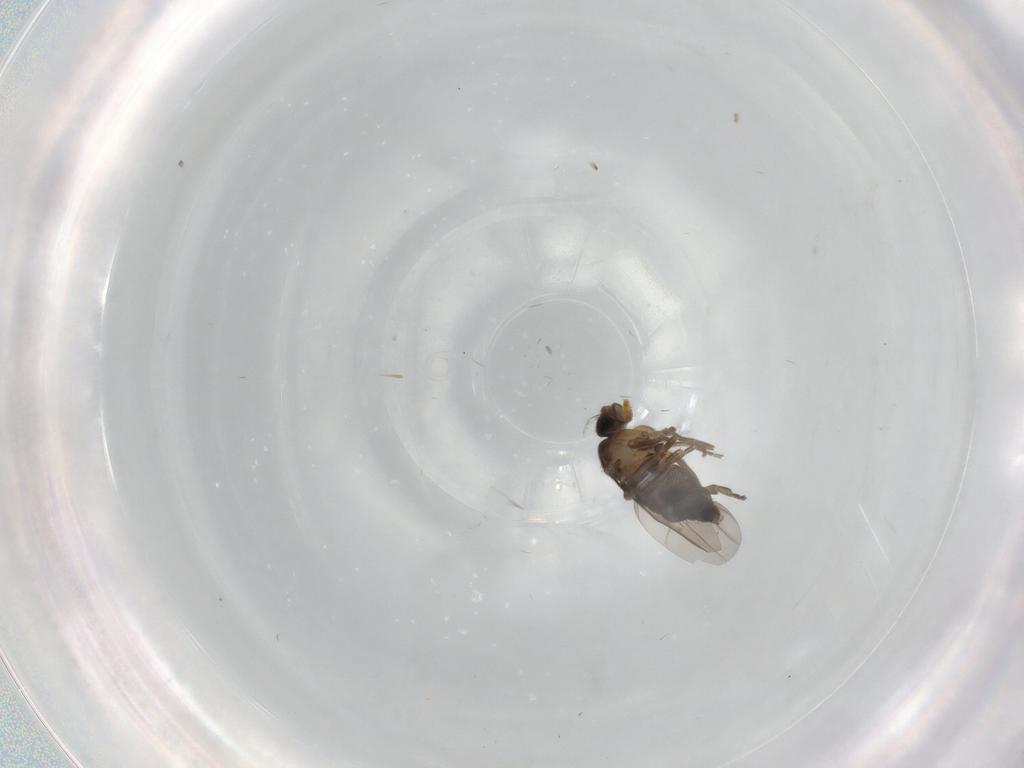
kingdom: Animalia
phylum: Arthropoda
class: Insecta
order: Diptera
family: Phoridae
